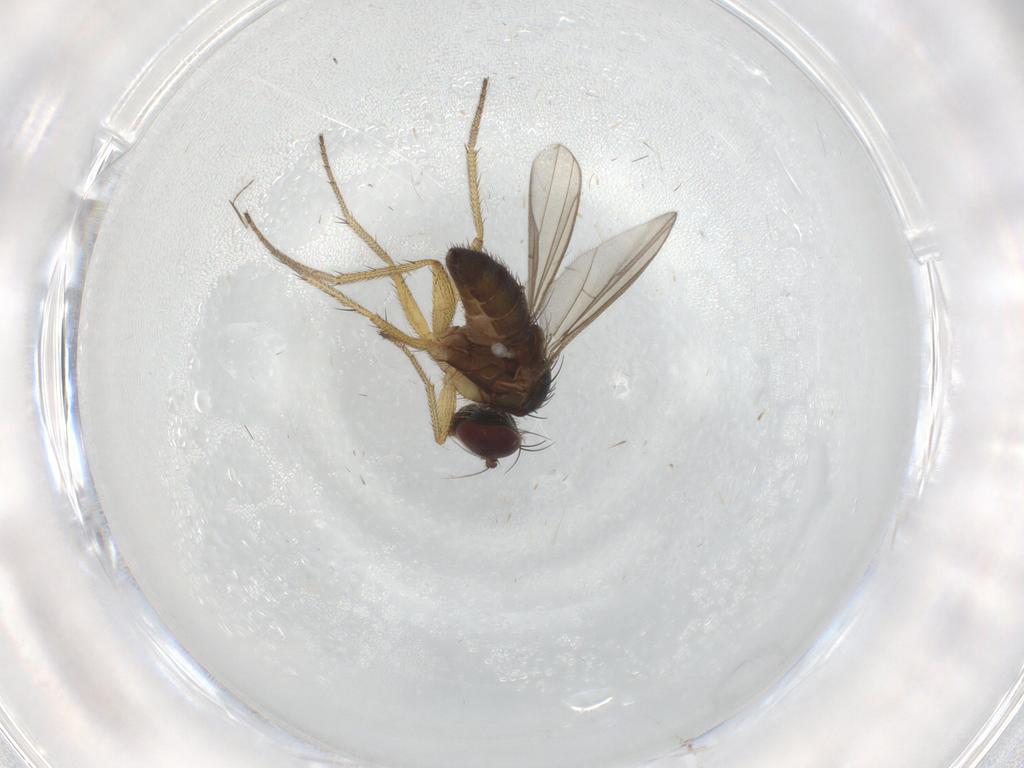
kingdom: Animalia
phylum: Arthropoda
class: Insecta
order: Diptera
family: Dolichopodidae
